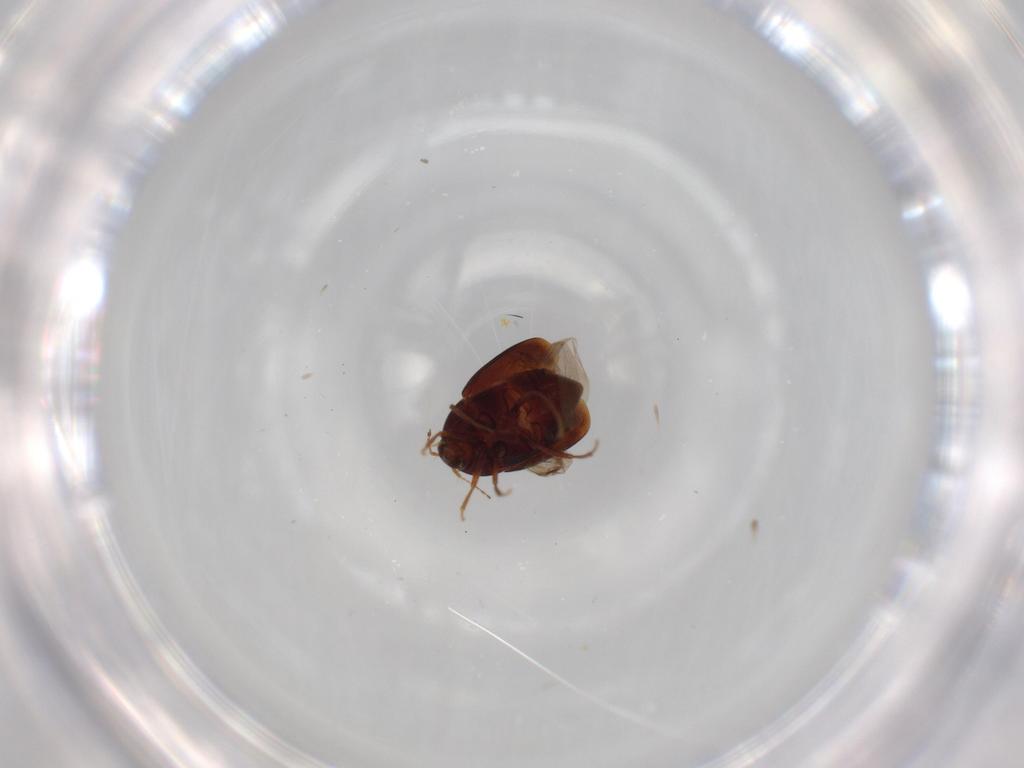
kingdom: Animalia
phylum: Arthropoda
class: Insecta
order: Coleoptera
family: Staphylinidae
